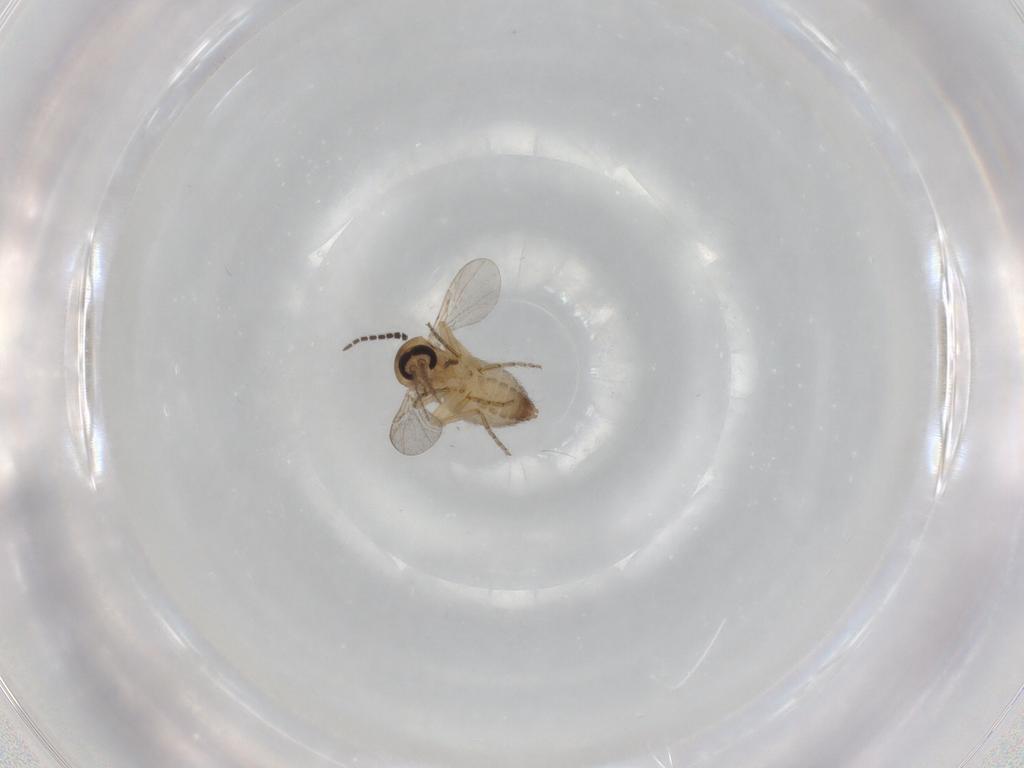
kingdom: Animalia
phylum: Arthropoda
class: Insecta
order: Diptera
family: Ceratopogonidae
